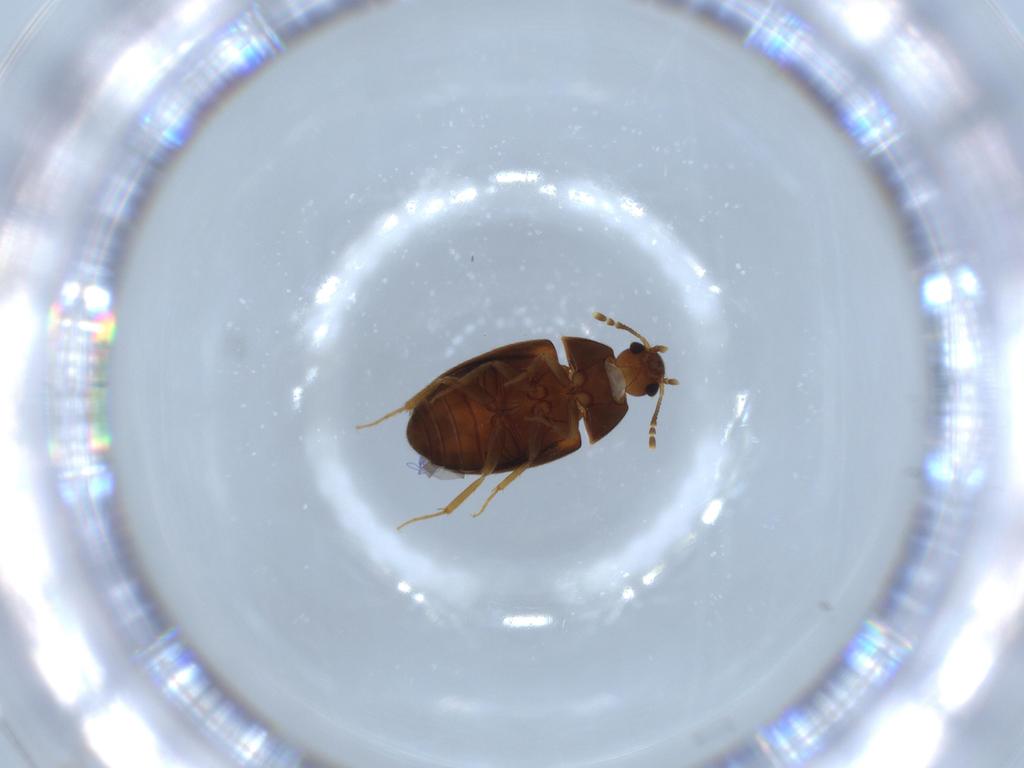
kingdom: Animalia
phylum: Arthropoda
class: Insecta
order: Coleoptera
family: Mycetophagidae
